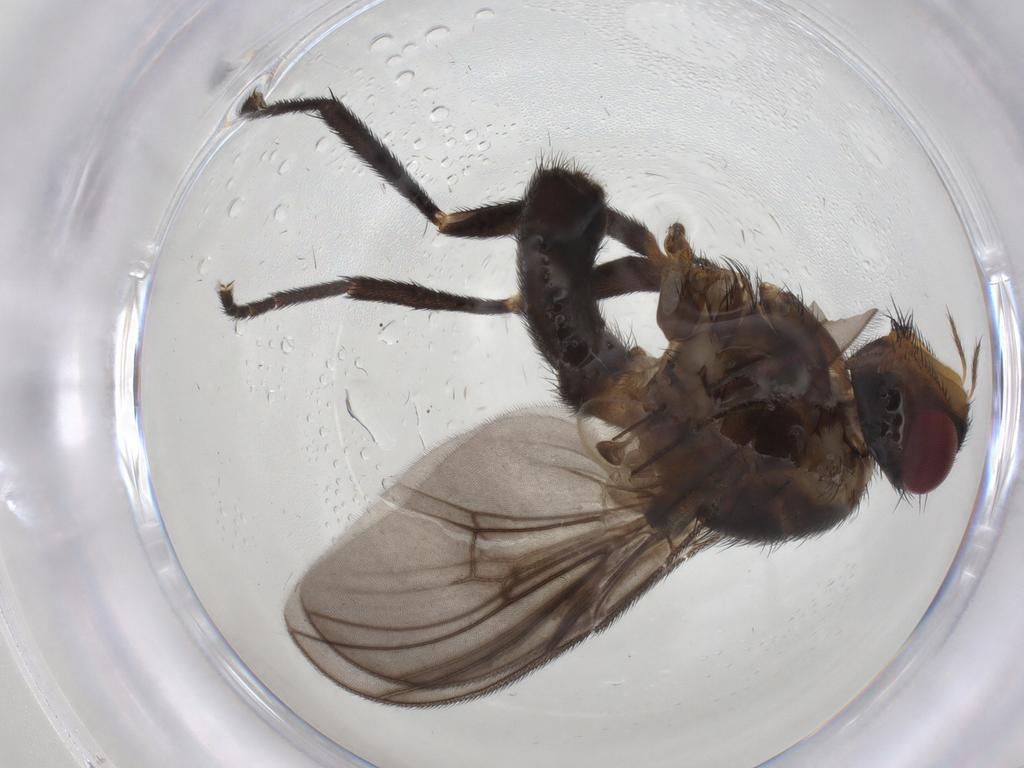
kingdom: Animalia
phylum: Arthropoda
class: Insecta
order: Diptera
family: Calliphoridae
